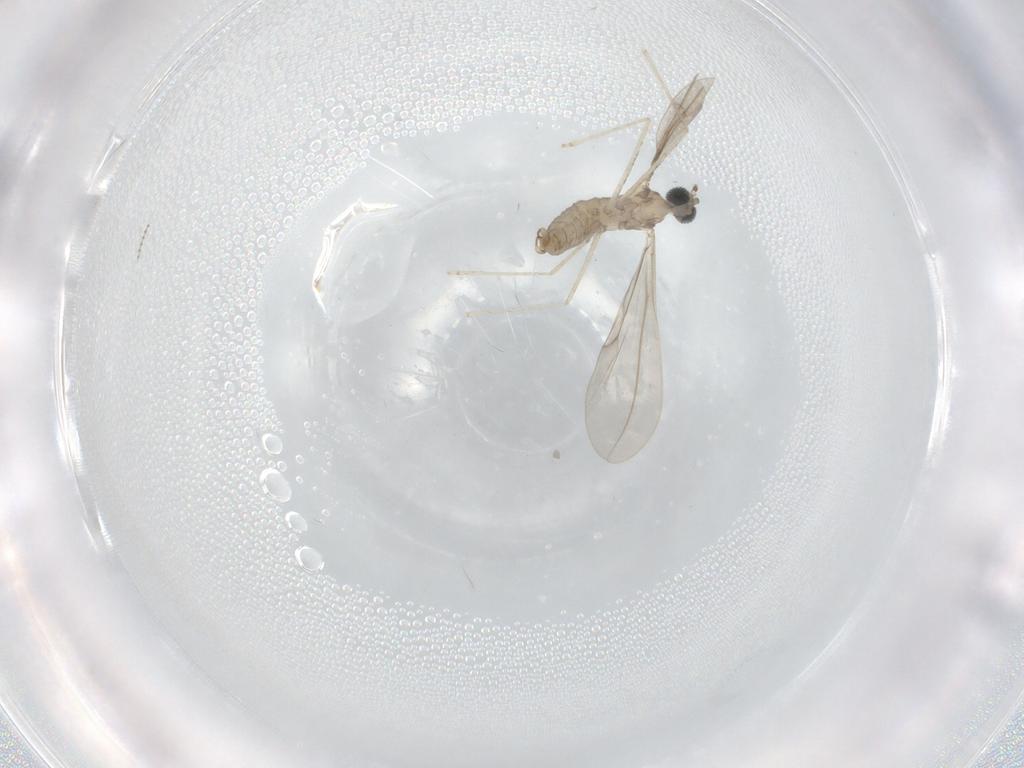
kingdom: Animalia
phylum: Arthropoda
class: Insecta
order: Diptera
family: Cecidomyiidae
